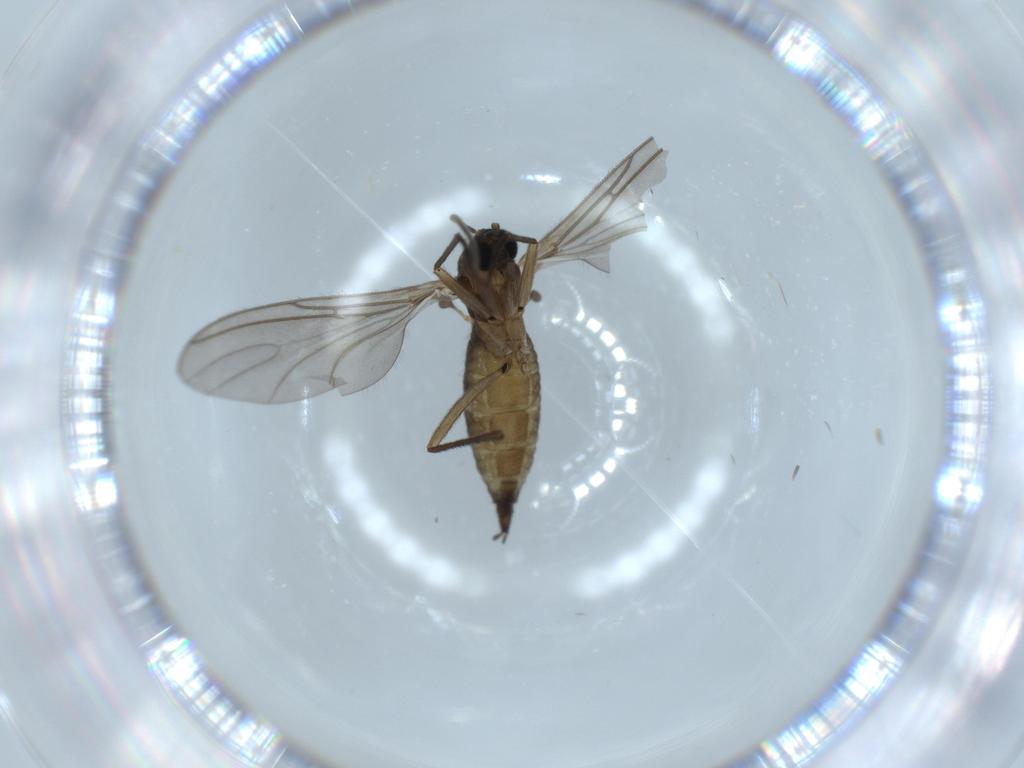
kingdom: Animalia
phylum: Arthropoda
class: Insecta
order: Diptera
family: Sciaridae
